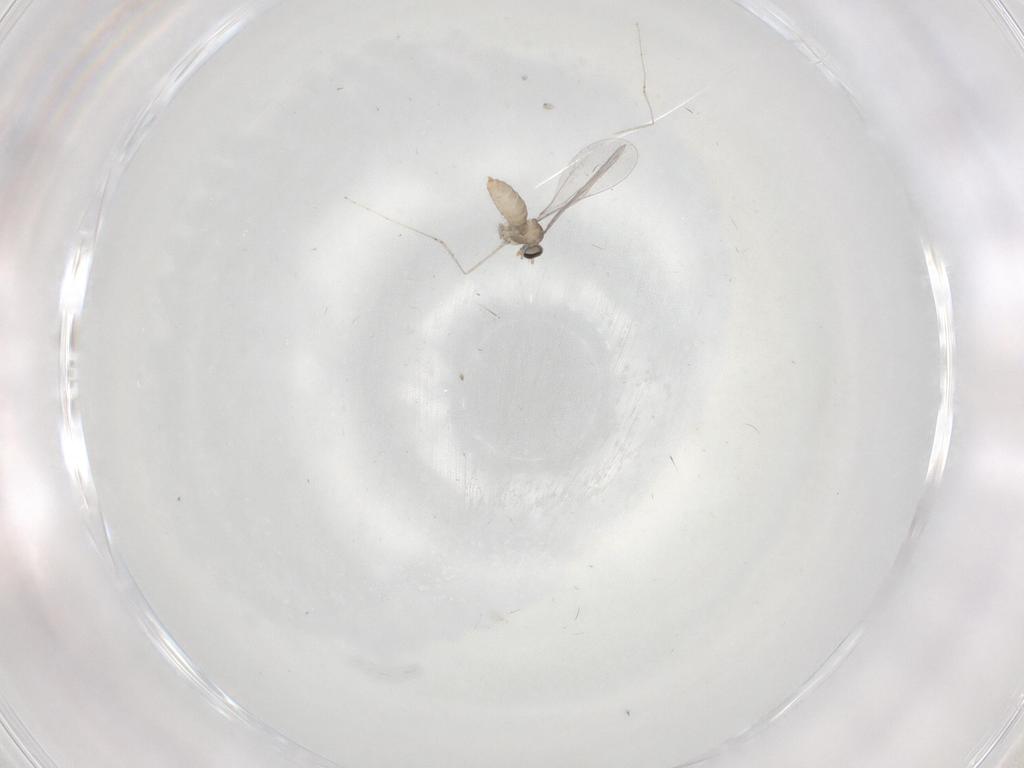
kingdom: Animalia
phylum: Arthropoda
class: Insecta
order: Diptera
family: Cecidomyiidae
